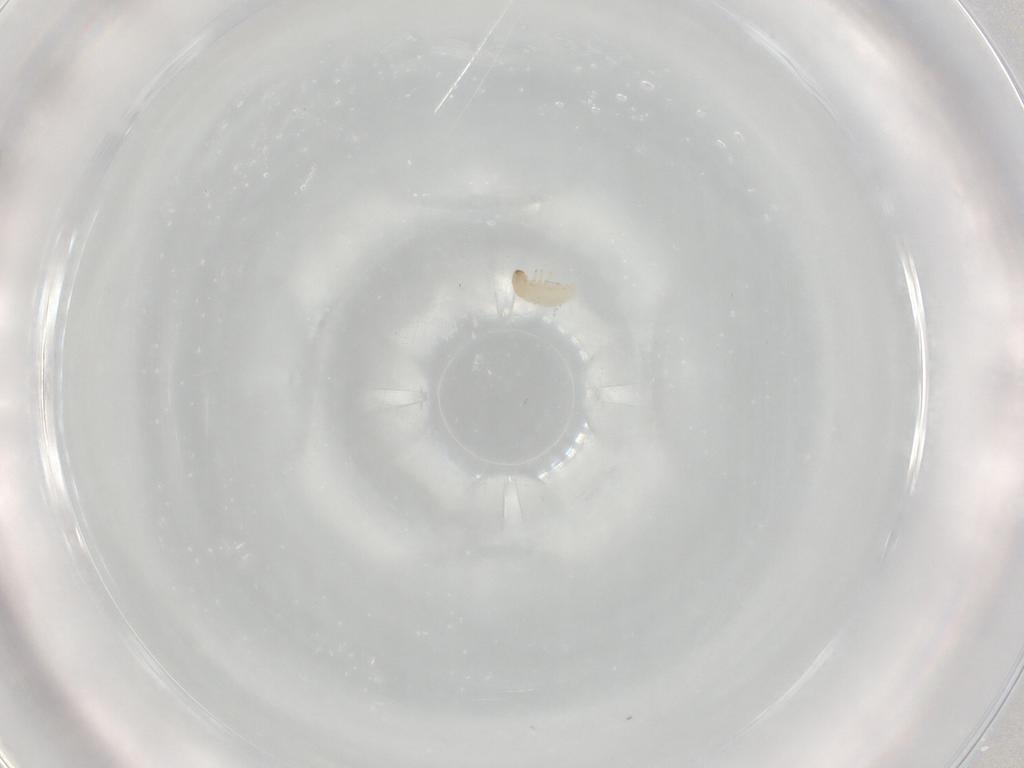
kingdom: Animalia
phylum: Arthropoda
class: Insecta
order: Coleoptera
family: Chrysomelidae
